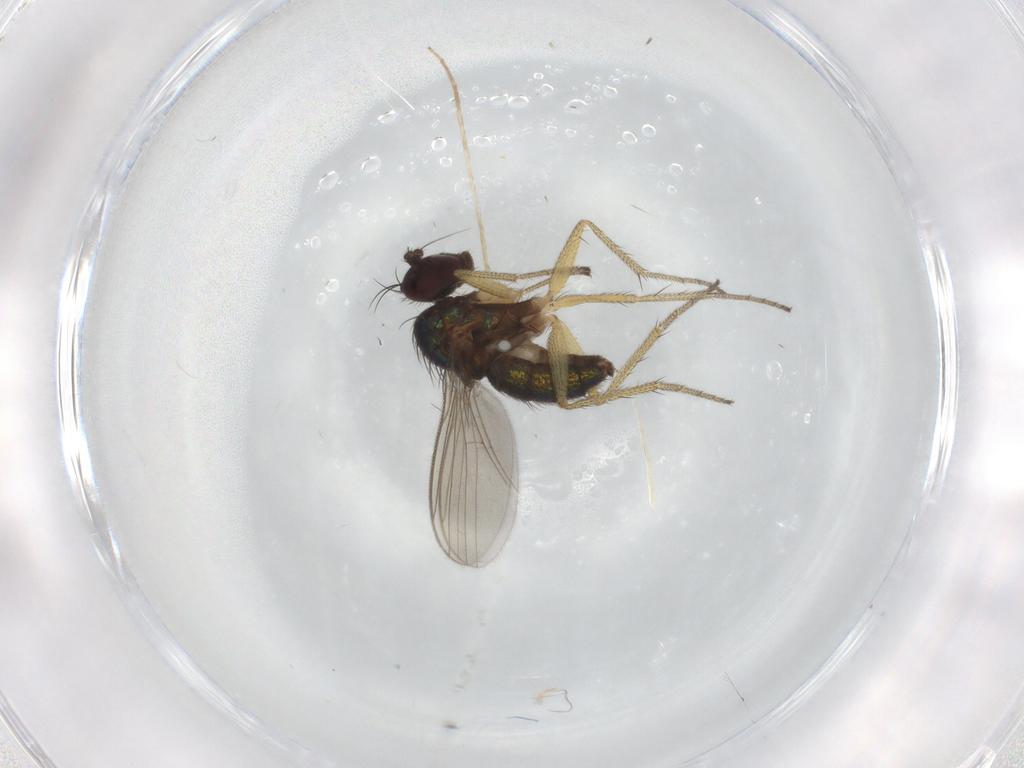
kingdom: Animalia
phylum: Arthropoda
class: Insecta
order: Diptera
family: Dolichopodidae
